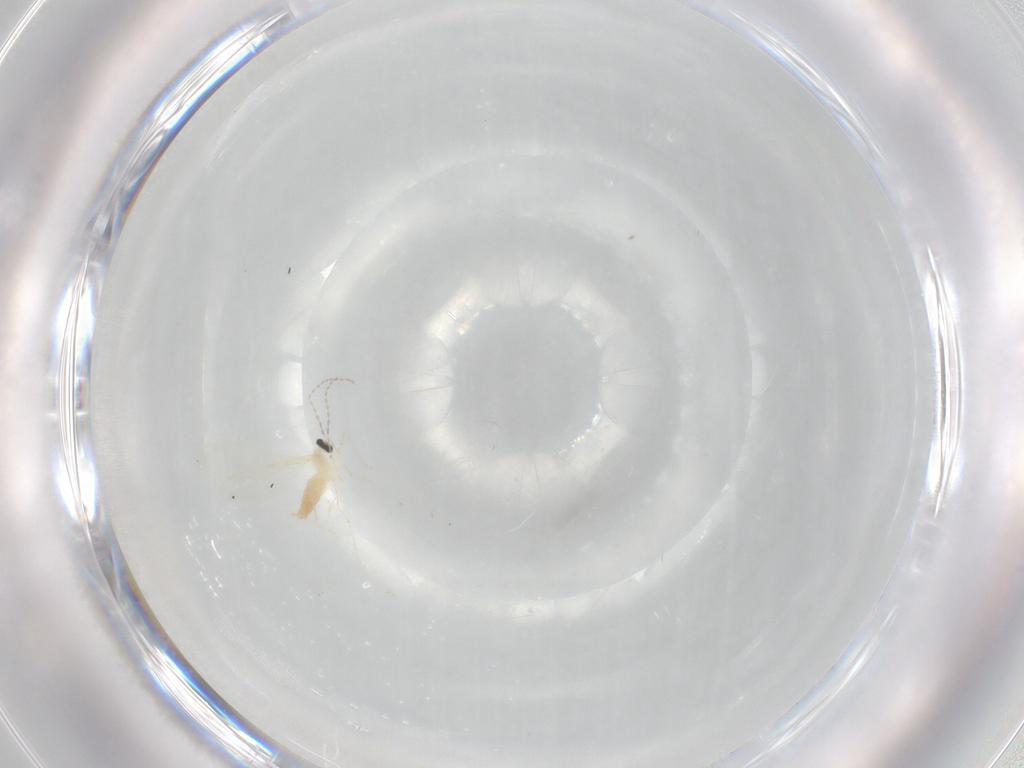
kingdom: Animalia
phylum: Arthropoda
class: Insecta
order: Diptera
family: Cecidomyiidae
